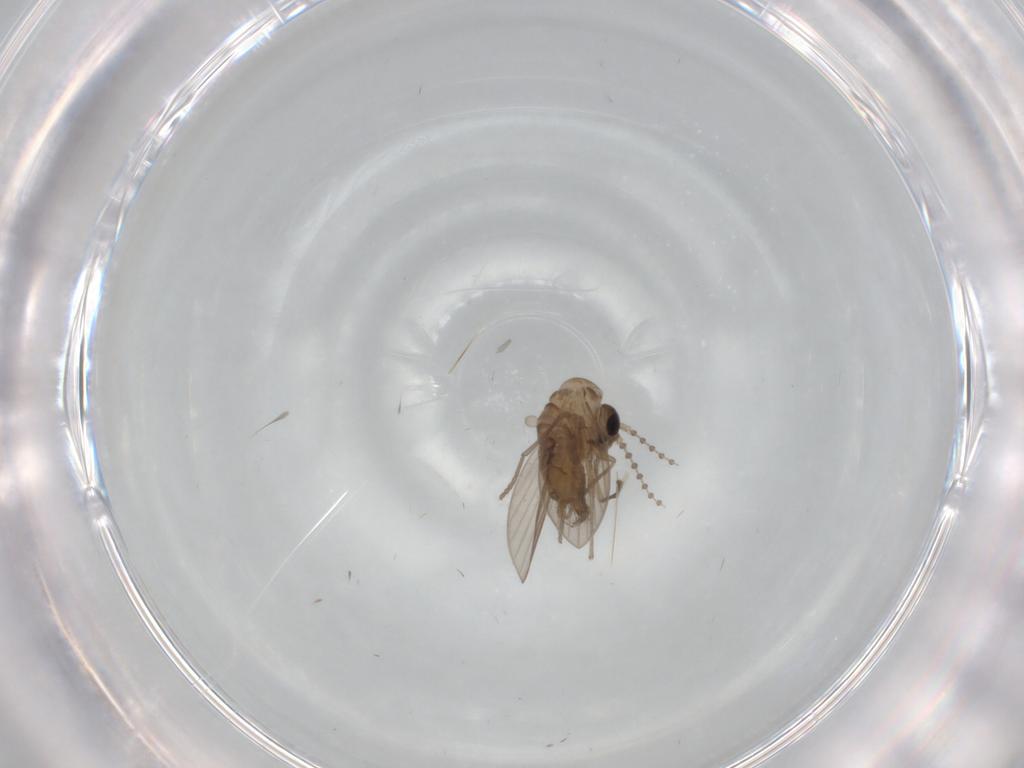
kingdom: Animalia
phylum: Arthropoda
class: Insecta
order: Diptera
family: Psychodidae
